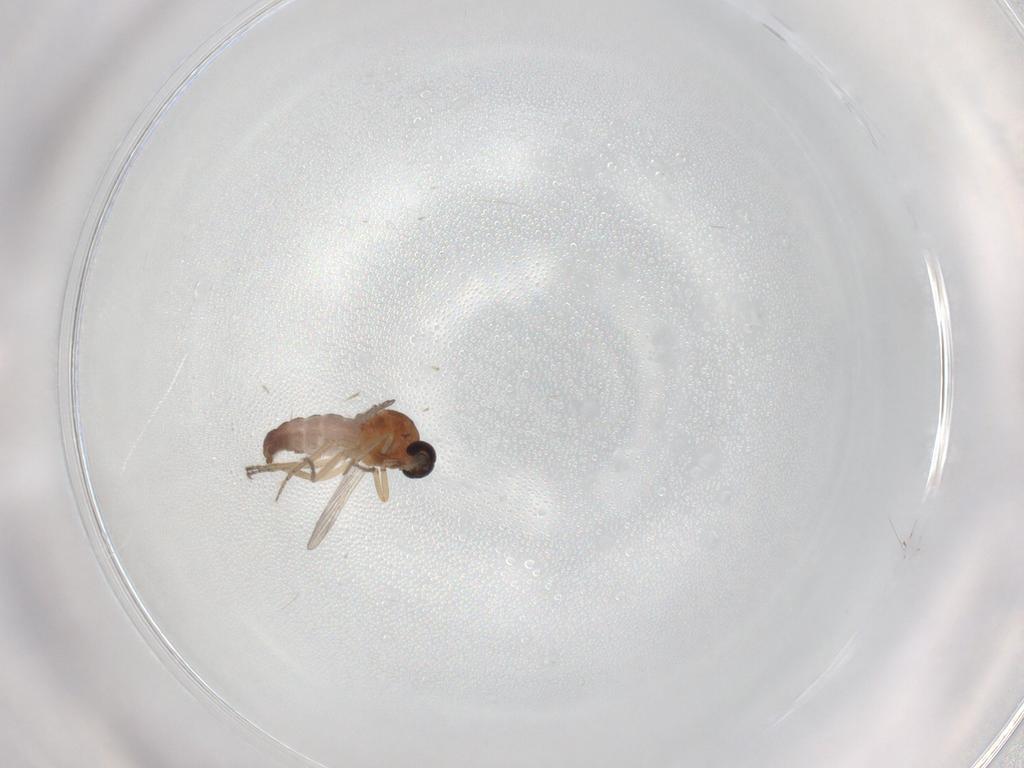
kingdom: Animalia
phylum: Arthropoda
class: Insecta
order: Diptera
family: Ceratopogonidae
